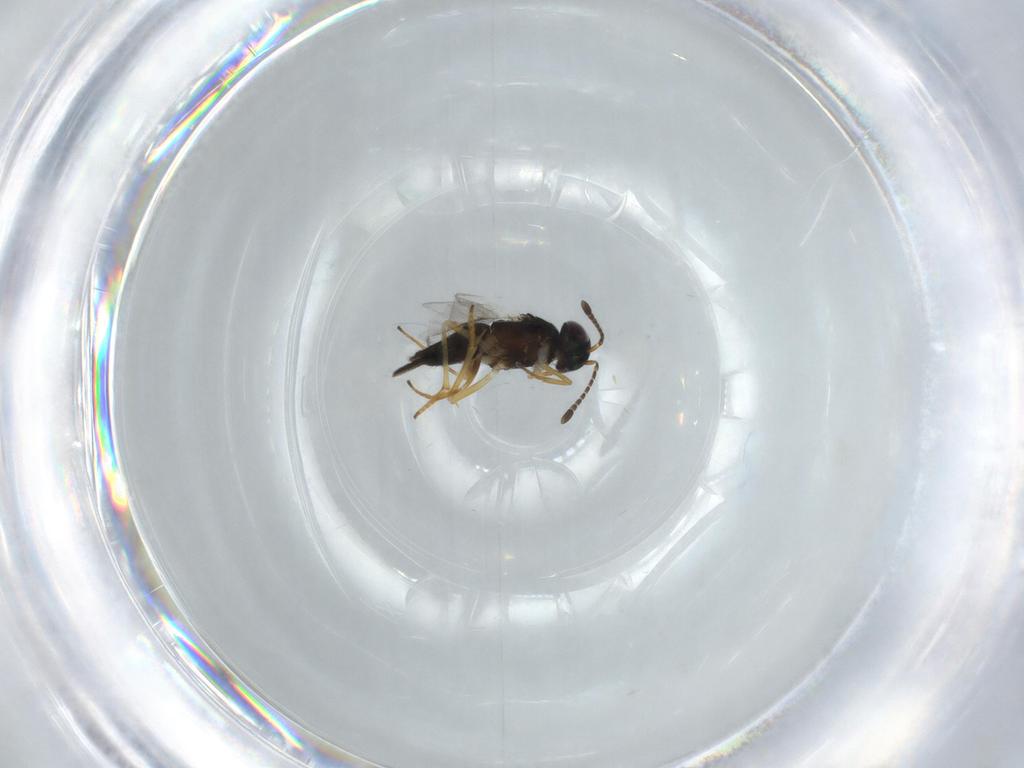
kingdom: Animalia
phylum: Arthropoda
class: Insecta
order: Hymenoptera
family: Encyrtidae
